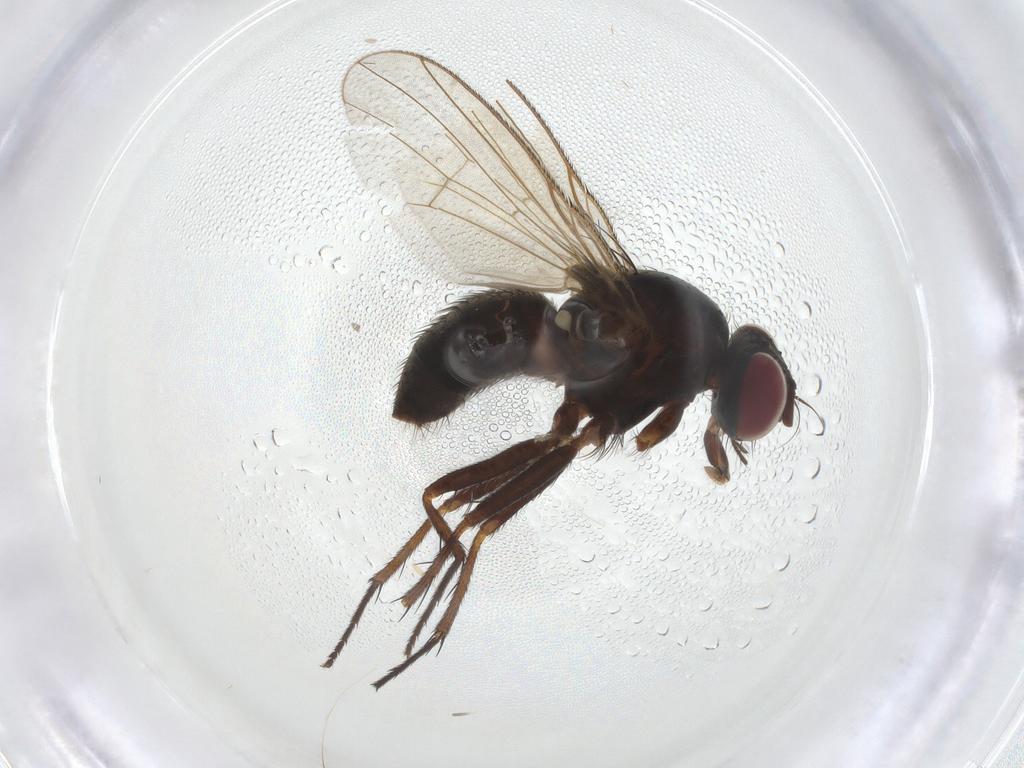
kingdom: Animalia
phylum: Arthropoda
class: Insecta
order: Diptera
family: Muscidae
